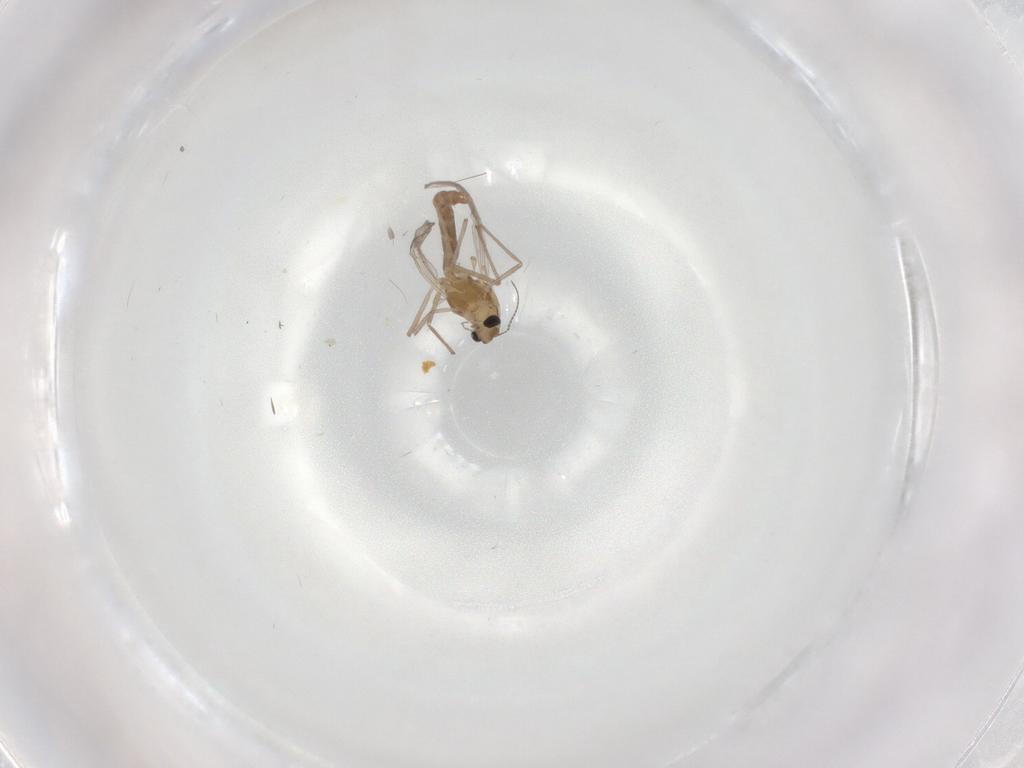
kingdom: Animalia
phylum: Arthropoda
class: Insecta
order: Diptera
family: Chironomidae
